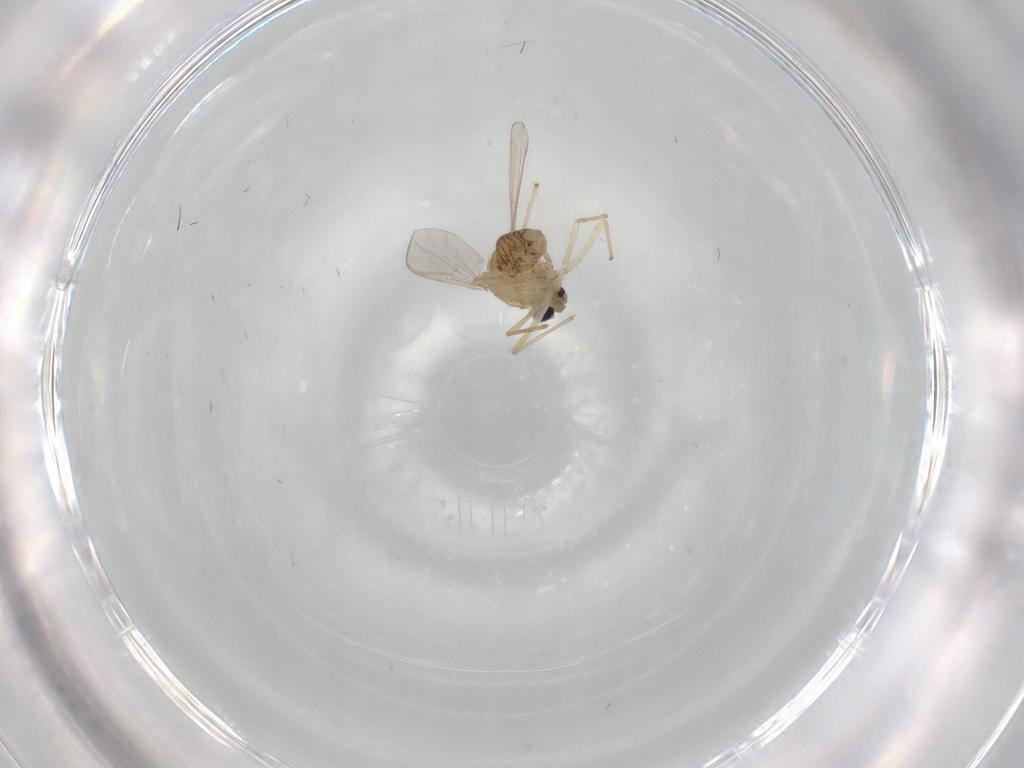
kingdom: Animalia
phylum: Arthropoda
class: Insecta
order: Diptera
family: Chironomidae
